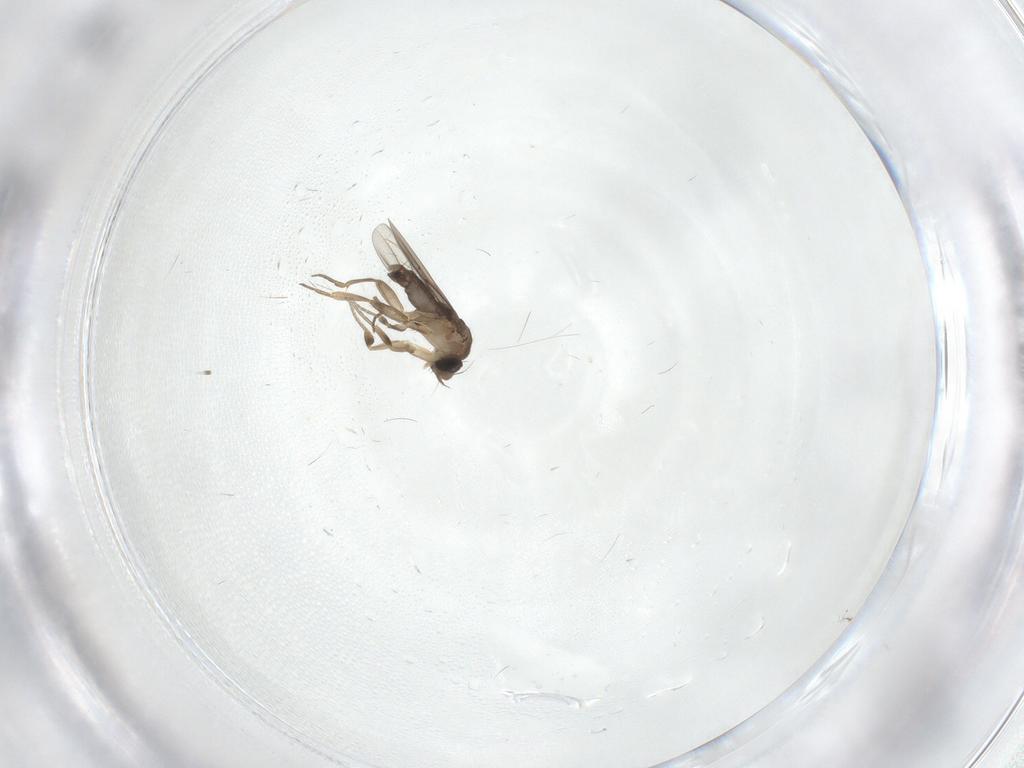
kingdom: Animalia
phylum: Arthropoda
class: Insecta
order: Diptera
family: Phoridae
